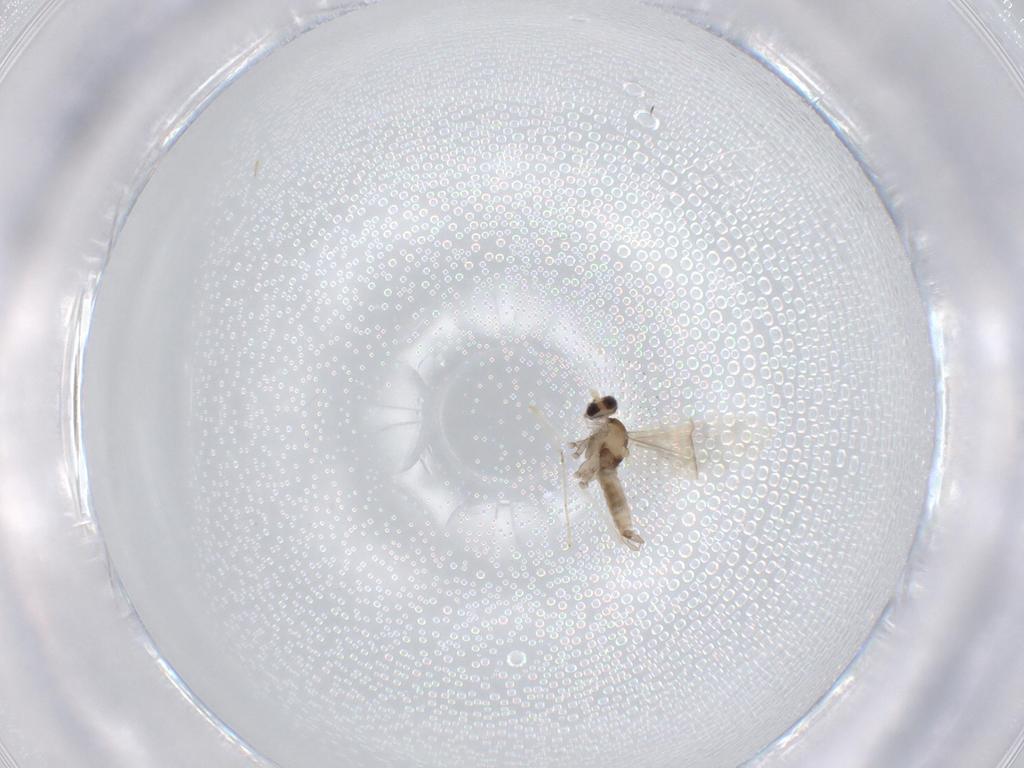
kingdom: Animalia
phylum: Arthropoda
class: Insecta
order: Diptera
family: Cecidomyiidae
